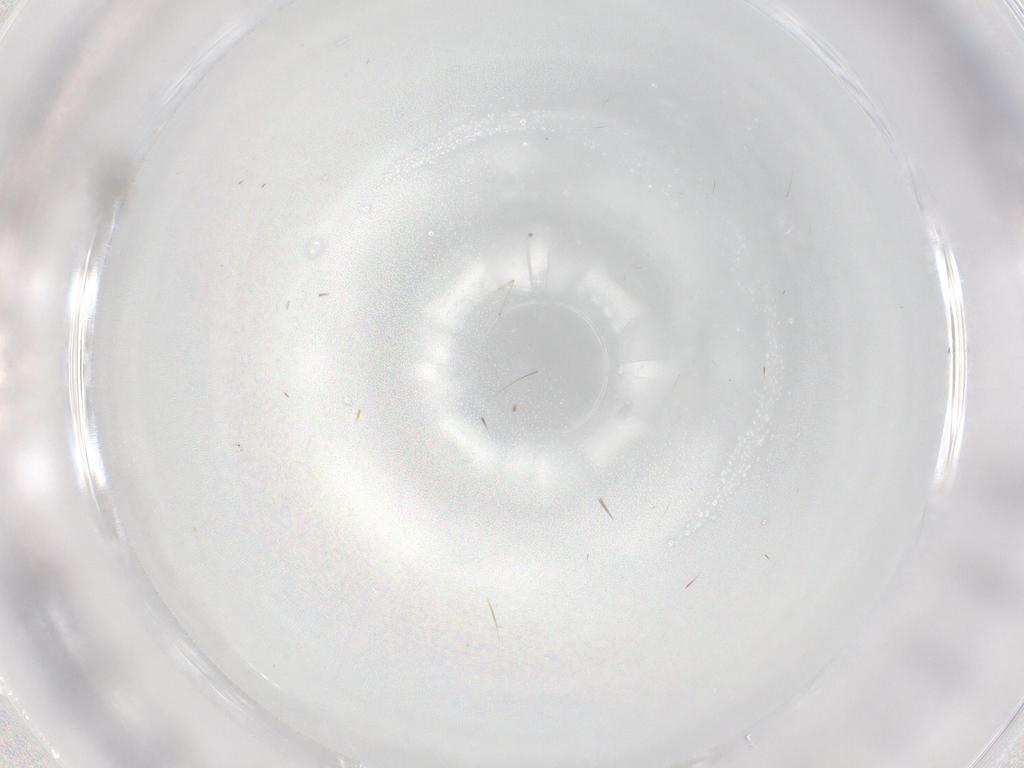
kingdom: Animalia
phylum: Arthropoda
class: Insecta
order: Diptera
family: Cecidomyiidae
